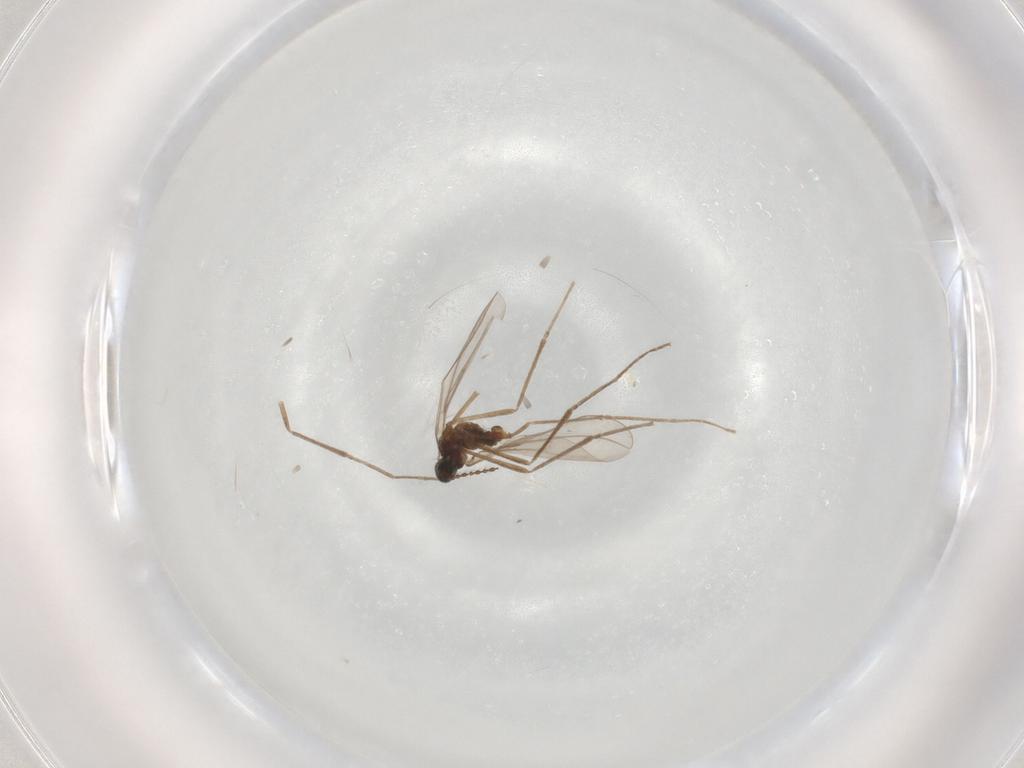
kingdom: Animalia
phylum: Arthropoda
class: Insecta
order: Diptera
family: Cecidomyiidae
